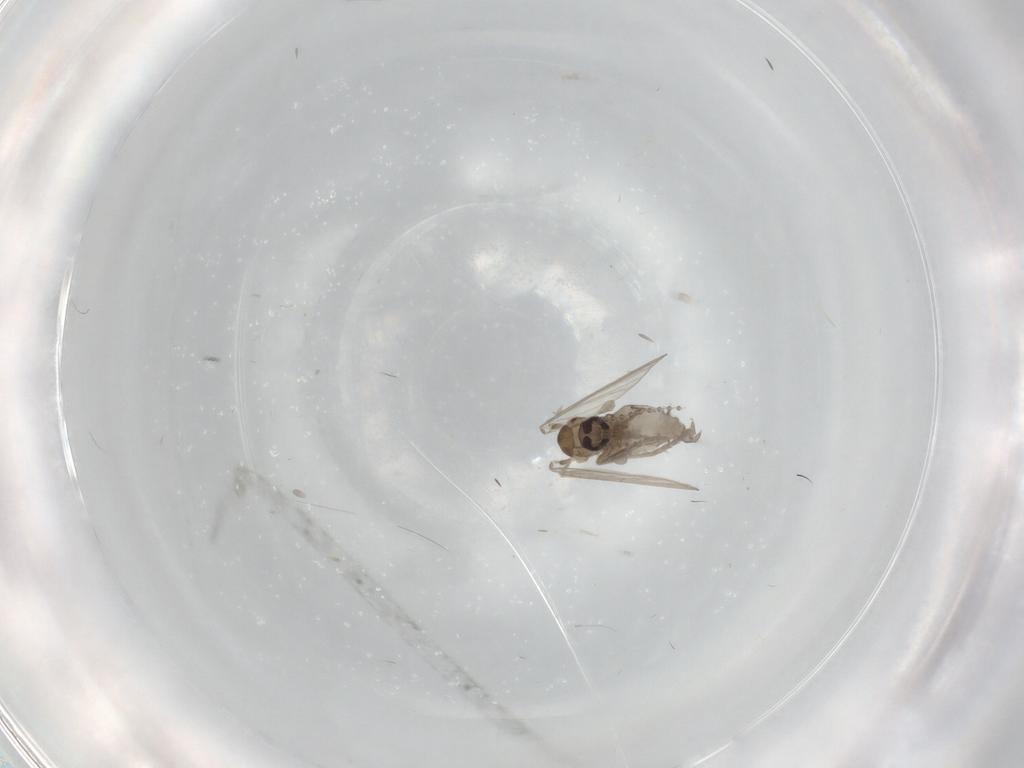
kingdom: Animalia
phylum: Arthropoda
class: Insecta
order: Diptera
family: Psychodidae
